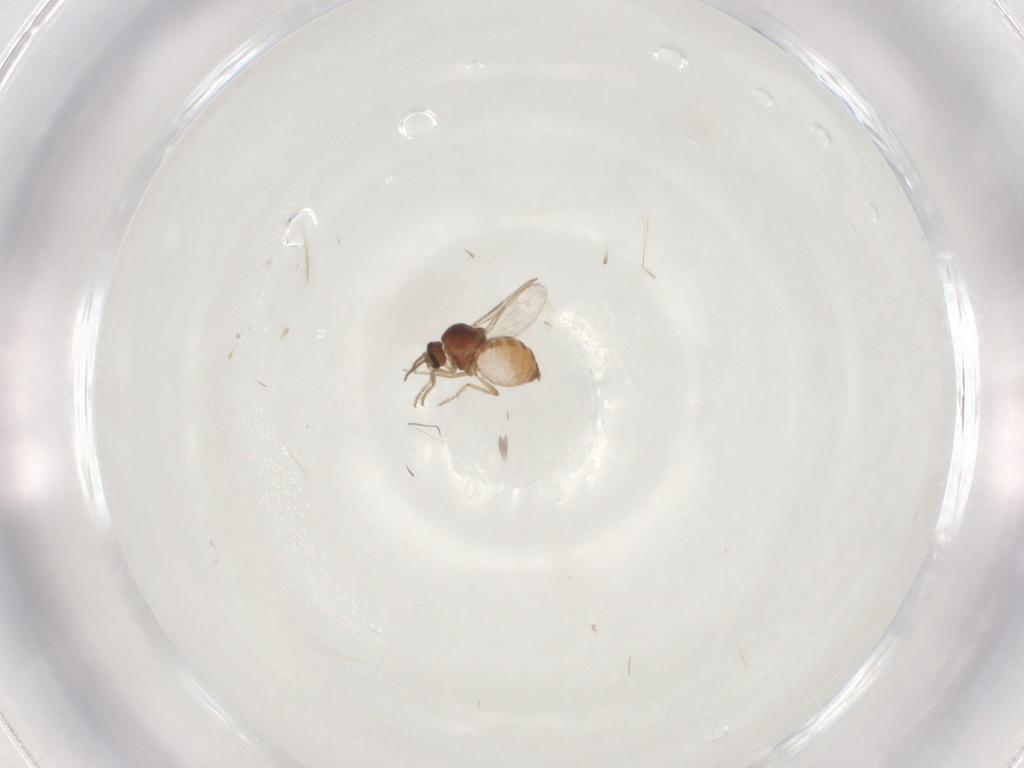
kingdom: Animalia
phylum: Arthropoda
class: Insecta
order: Diptera
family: Ceratopogonidae
